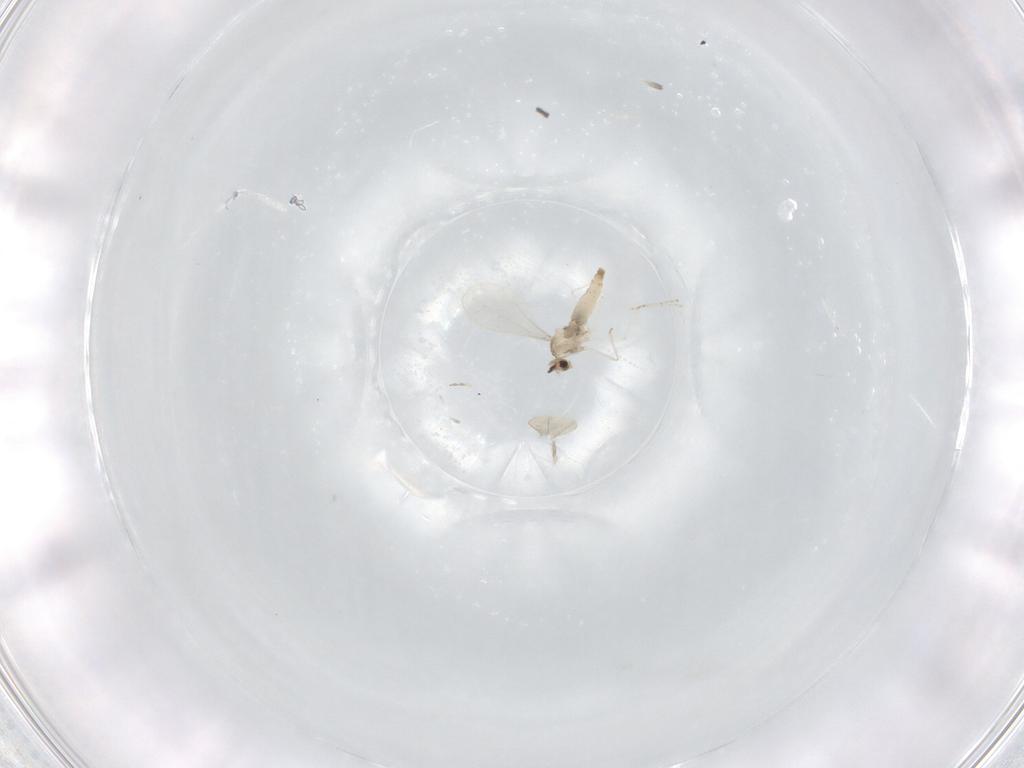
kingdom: Animalia
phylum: Arthropoda
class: Insecta
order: Diptera
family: Cecidomyiidae
